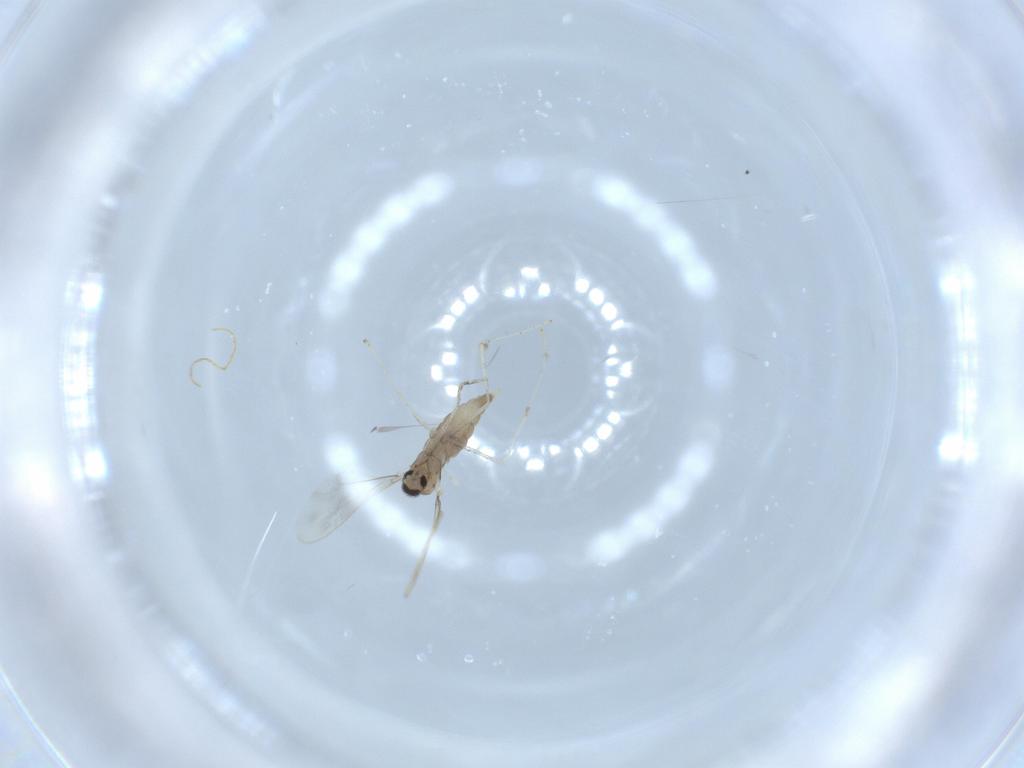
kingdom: Animalia
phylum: Arthropoda
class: Insecta
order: Diptera
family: Cecidomyiidae
